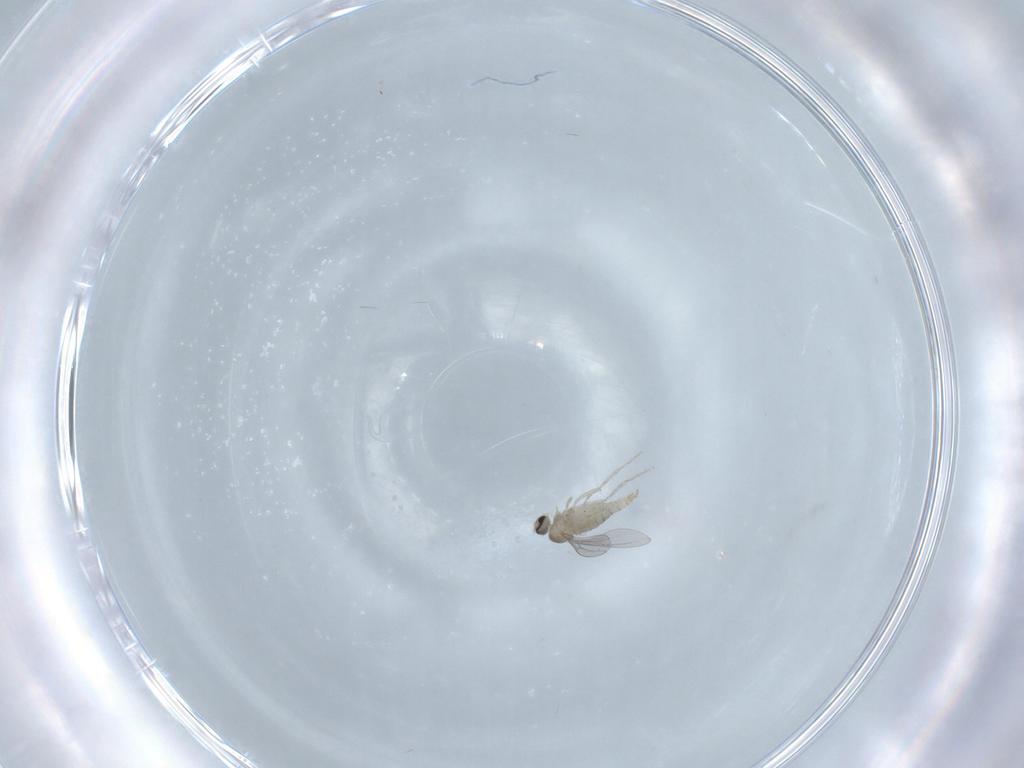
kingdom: Animalia
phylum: Arthropoda
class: Insecta
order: Diptera
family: Cecidomyiidae
